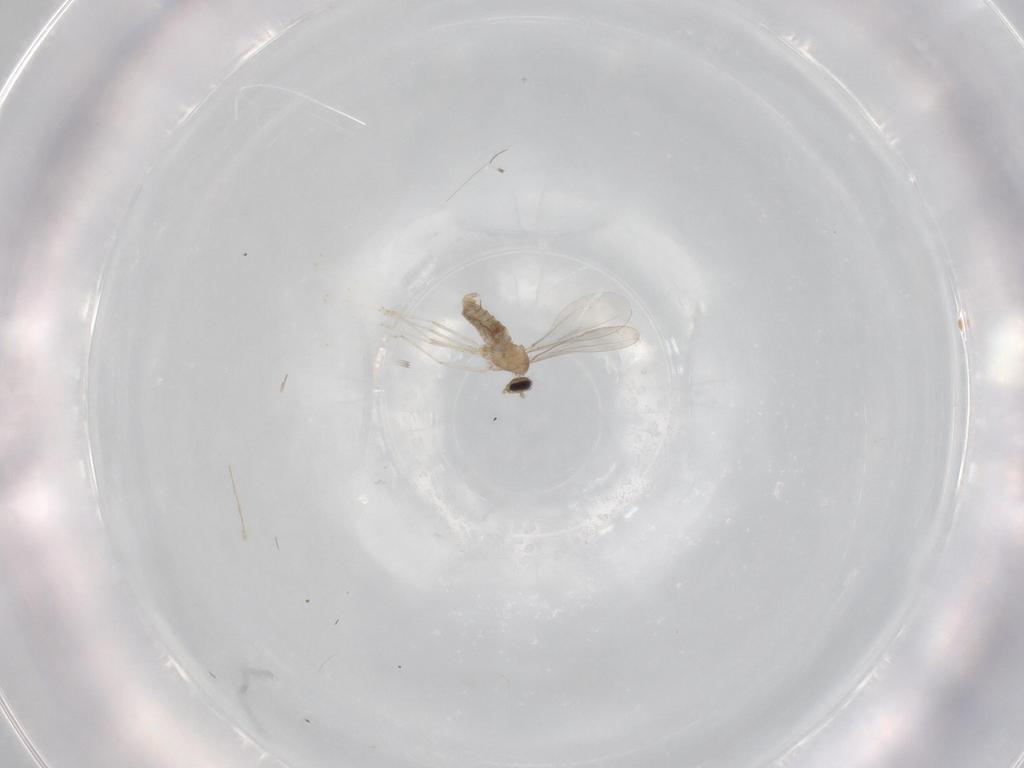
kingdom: Animalia
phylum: Arthropoda
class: Insecta
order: Diptera
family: Cecidomyiidae
